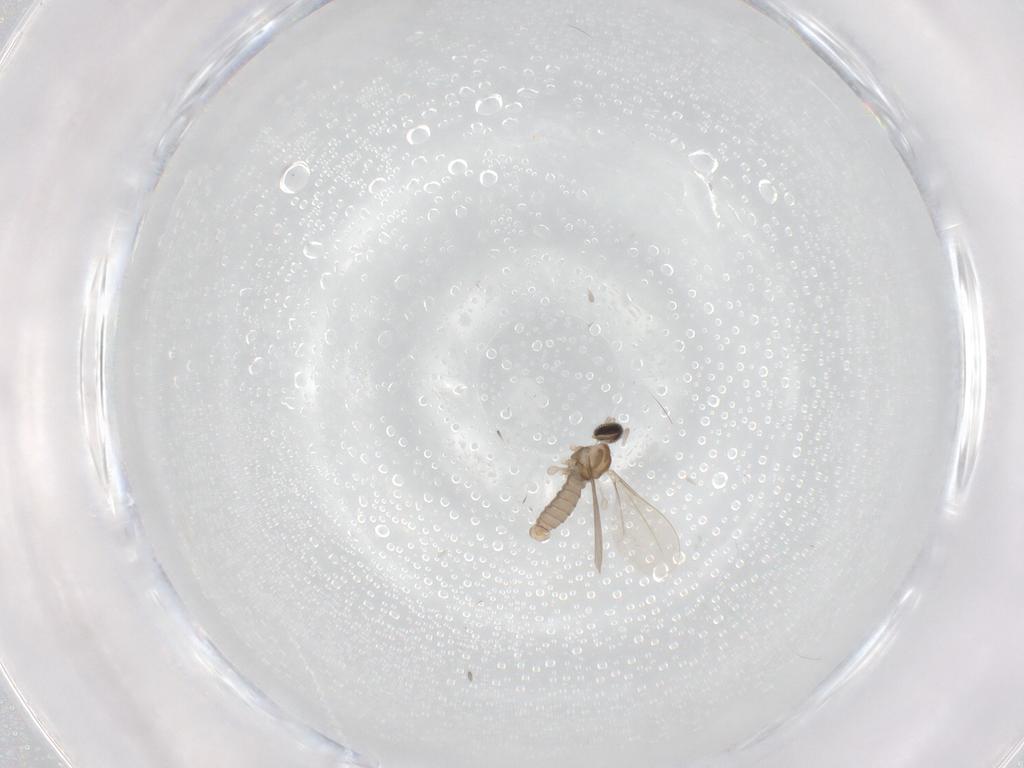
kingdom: Animalia
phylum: Arthropoda
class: Insecta
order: Diptera
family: Cecidomyiidae
